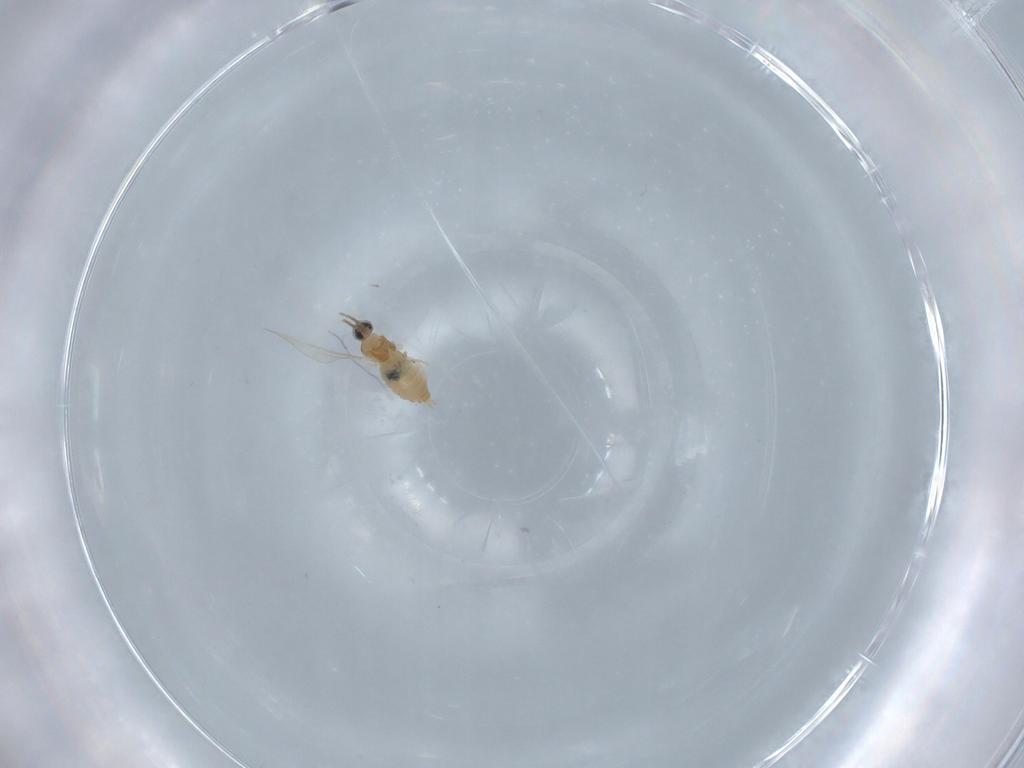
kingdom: Animalia
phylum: Arthropoda
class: Insecta
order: Diptera
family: Cecidomyiidae
